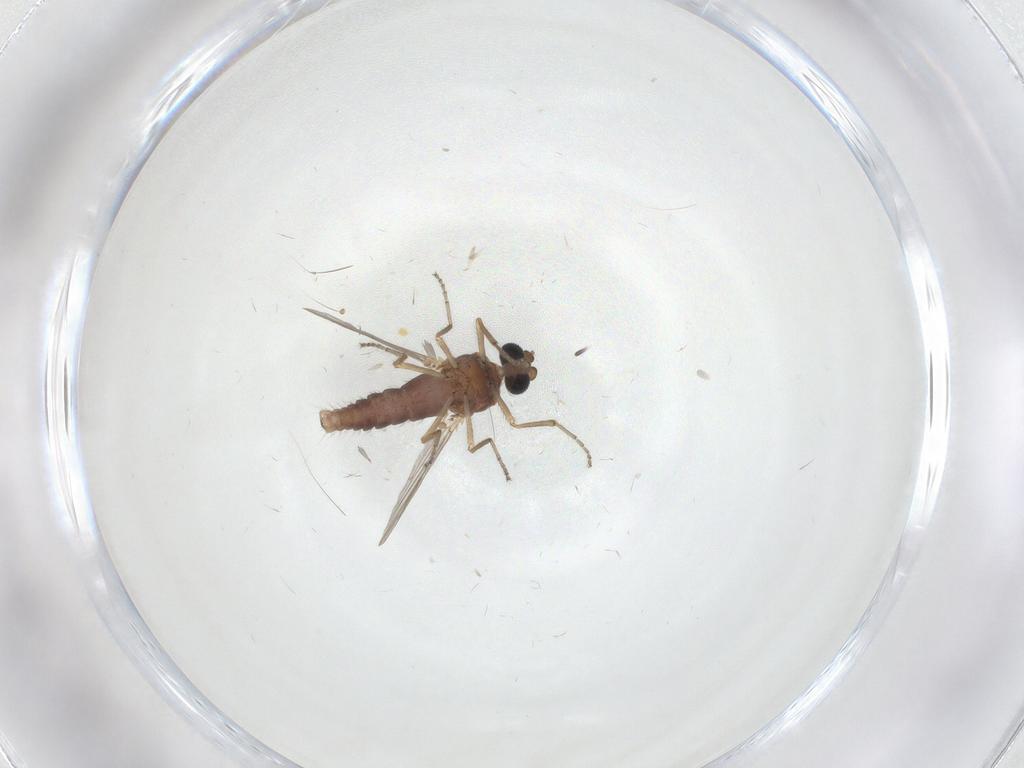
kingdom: Animalia
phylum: Arthropoda
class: Insecta
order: Diptera
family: Ceratopogonidae
